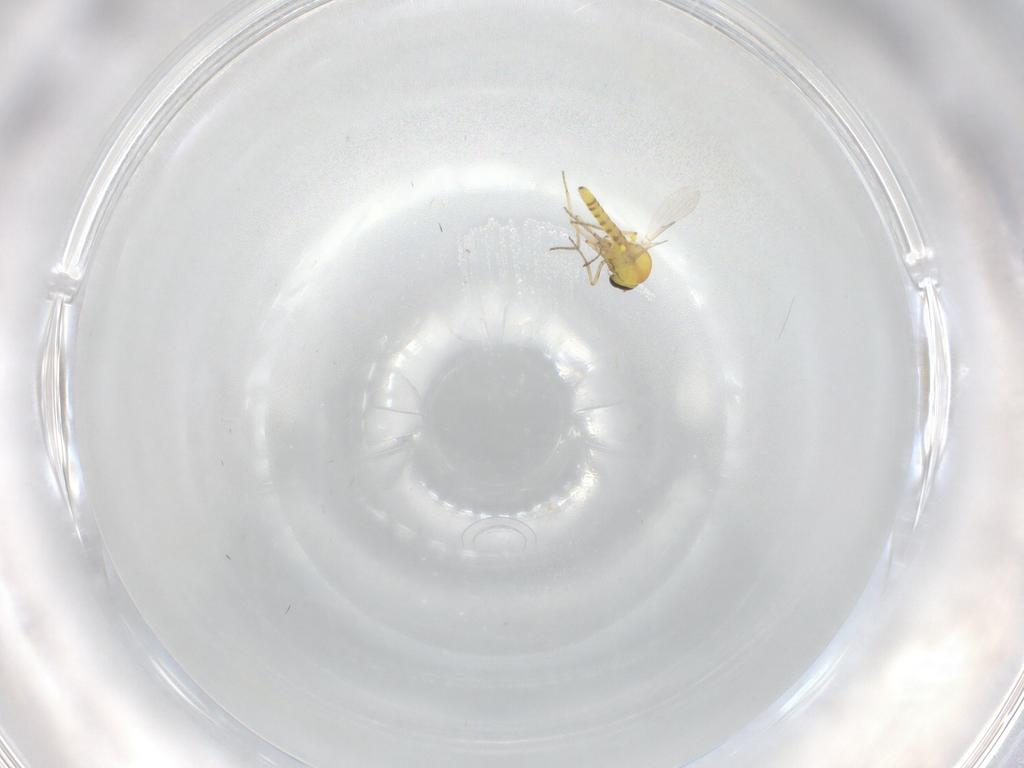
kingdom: Animalia
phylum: Arthropoda
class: Insecta
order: Diptera
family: Ceratopogonidae
